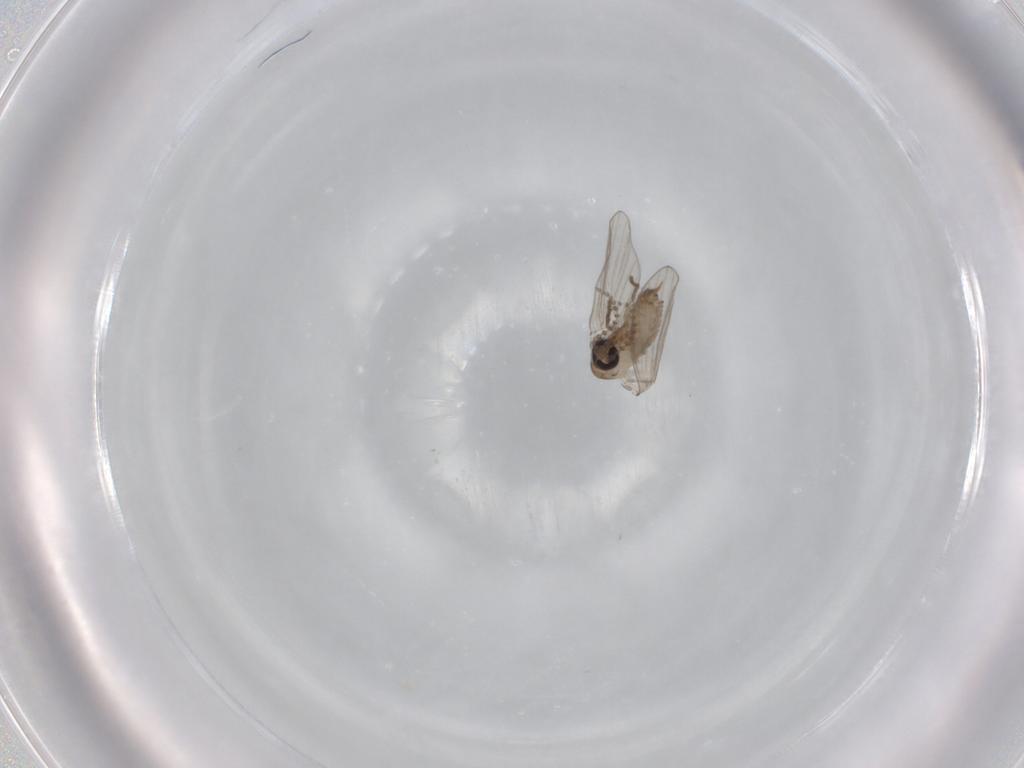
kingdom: Animalia
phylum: Arthropoda
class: Insecta
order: Diptera
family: Psychodidae
